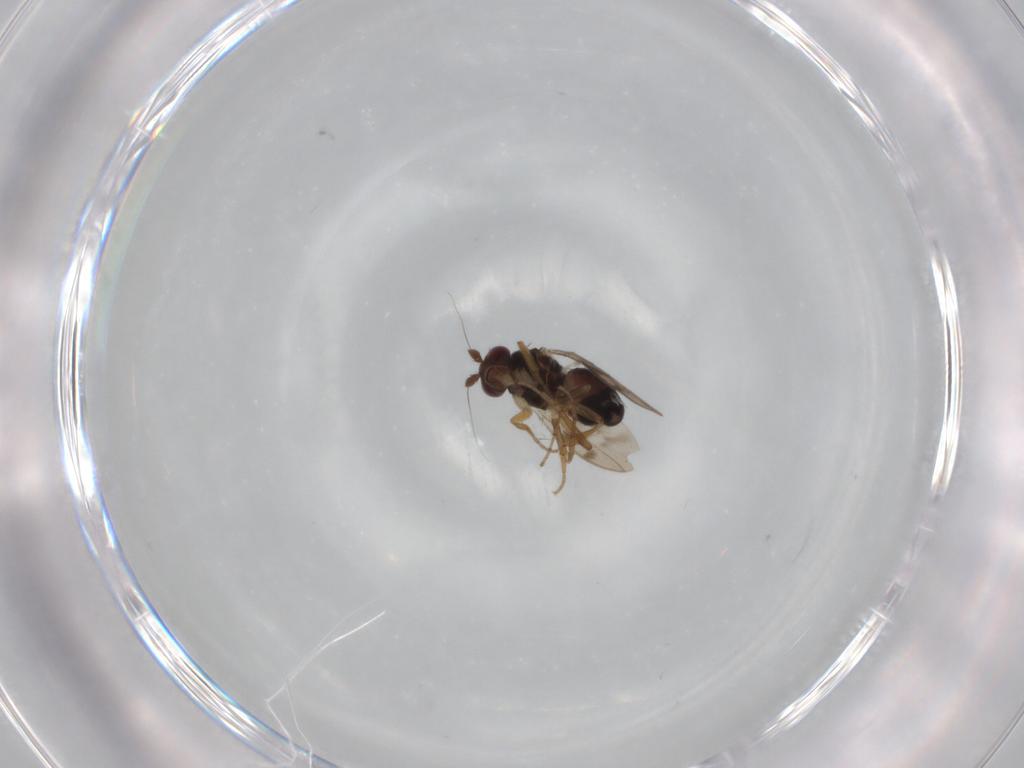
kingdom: Animalia
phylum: Arthropoda
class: Insecta
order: Diptera
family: Sphaeroceridae
